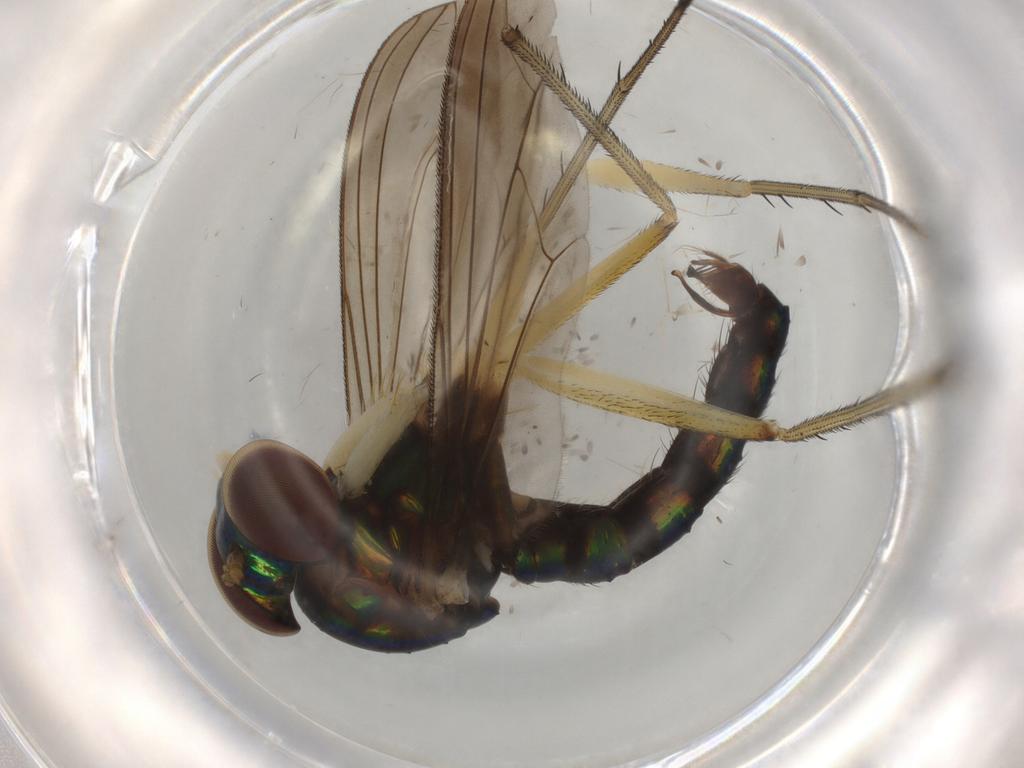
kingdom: Animalia
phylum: Arthropoda
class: Insecta
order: Diptera
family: Dolichopodidae
